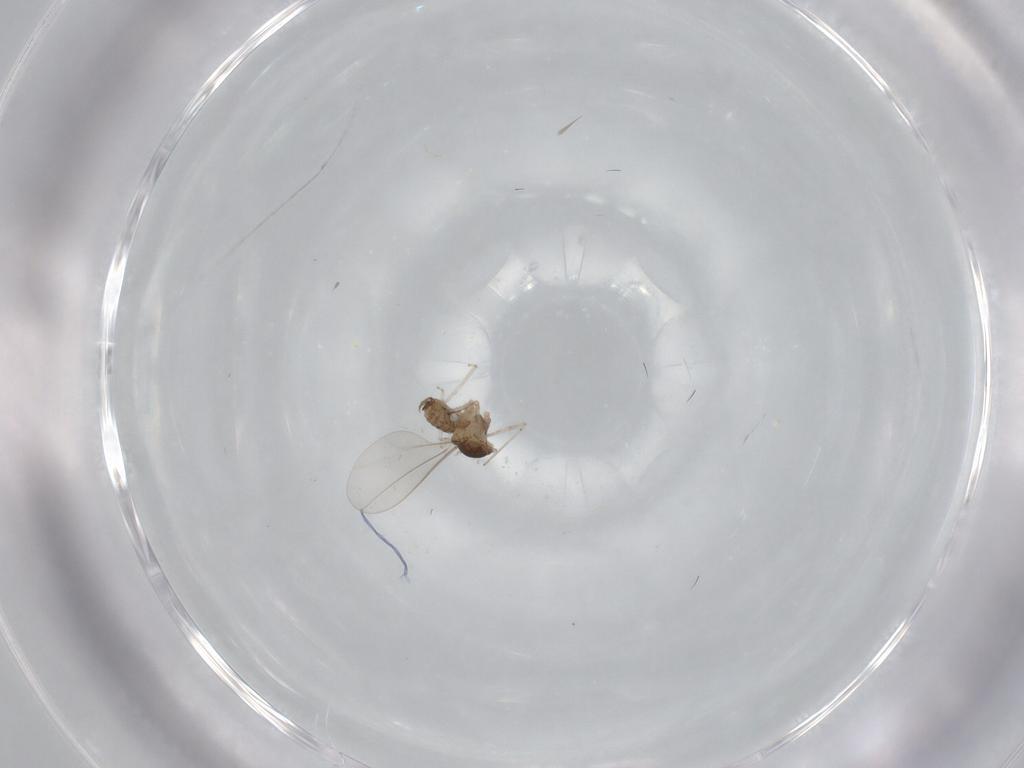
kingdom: Animalia
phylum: Arthropoda
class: Insecta
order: Diptera
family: Cecidomyiidae
